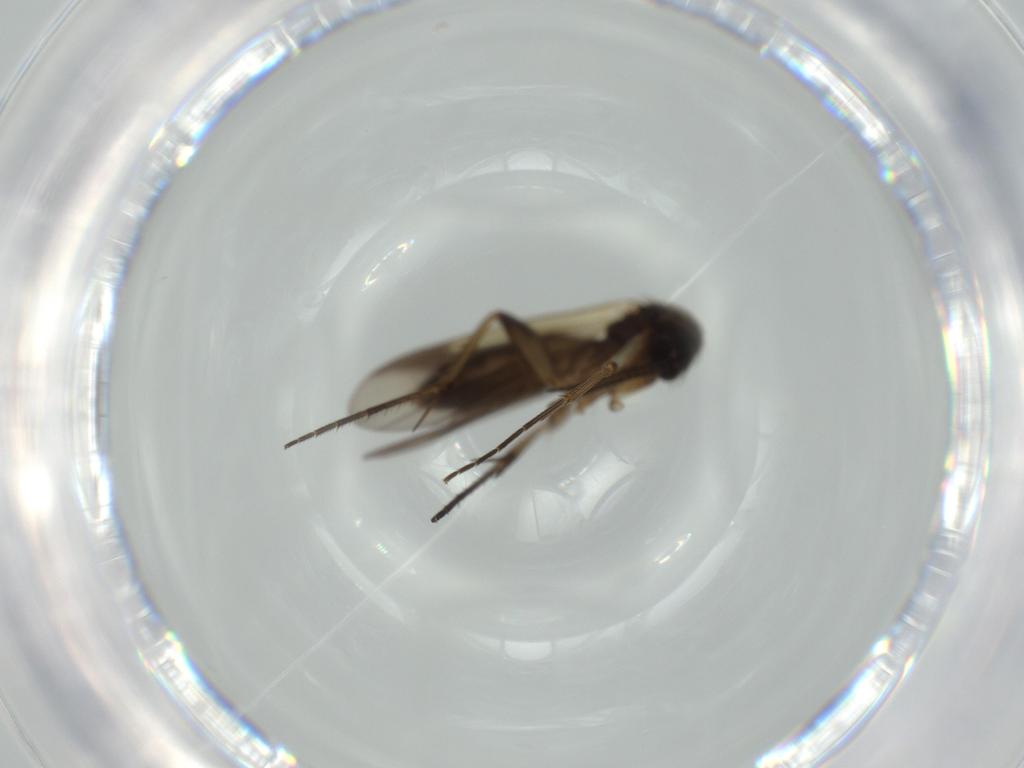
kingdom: Animalia
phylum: Arthropoda
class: Insecta
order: Diptera
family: Mycetophilidae
